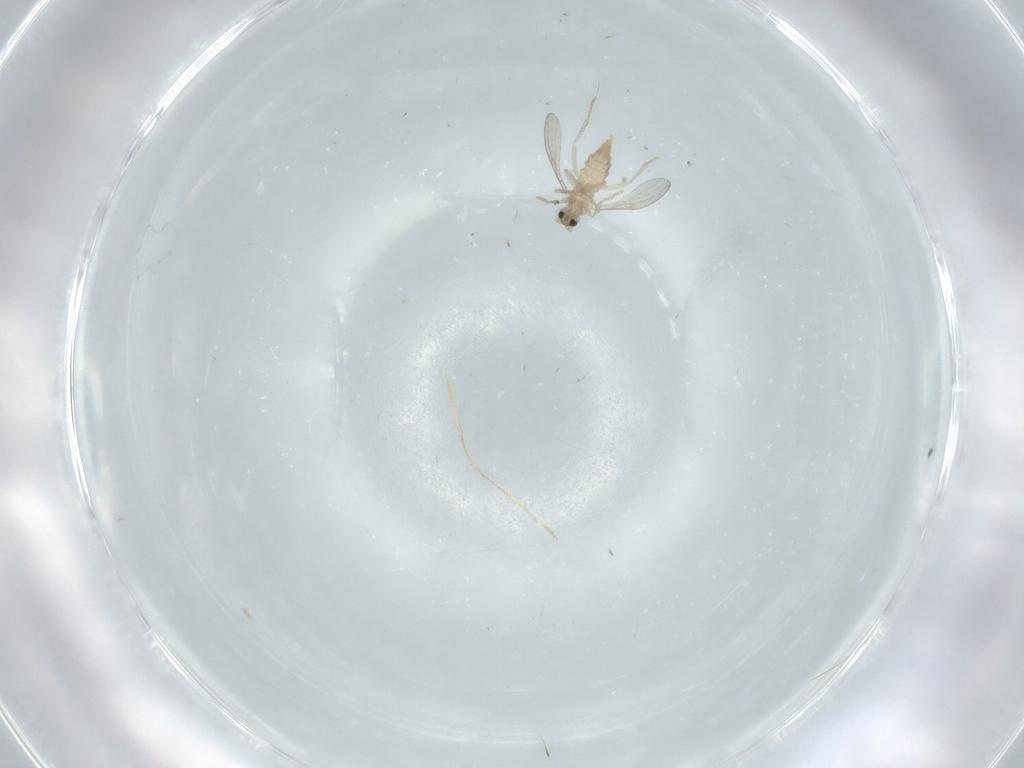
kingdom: Animalia
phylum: Arthropoda
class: Insecta
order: Diptera
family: Cecidomyiidae
